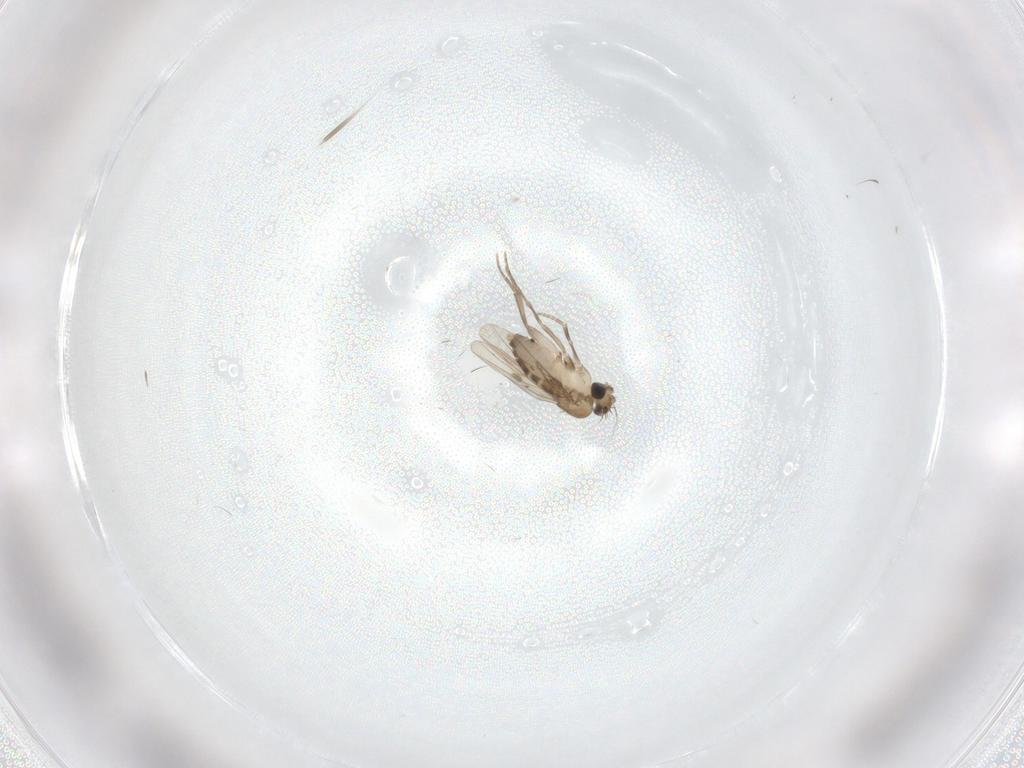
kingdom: Animalia
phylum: Arthropoda
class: Insecta
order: Diptera
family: Phoridae
